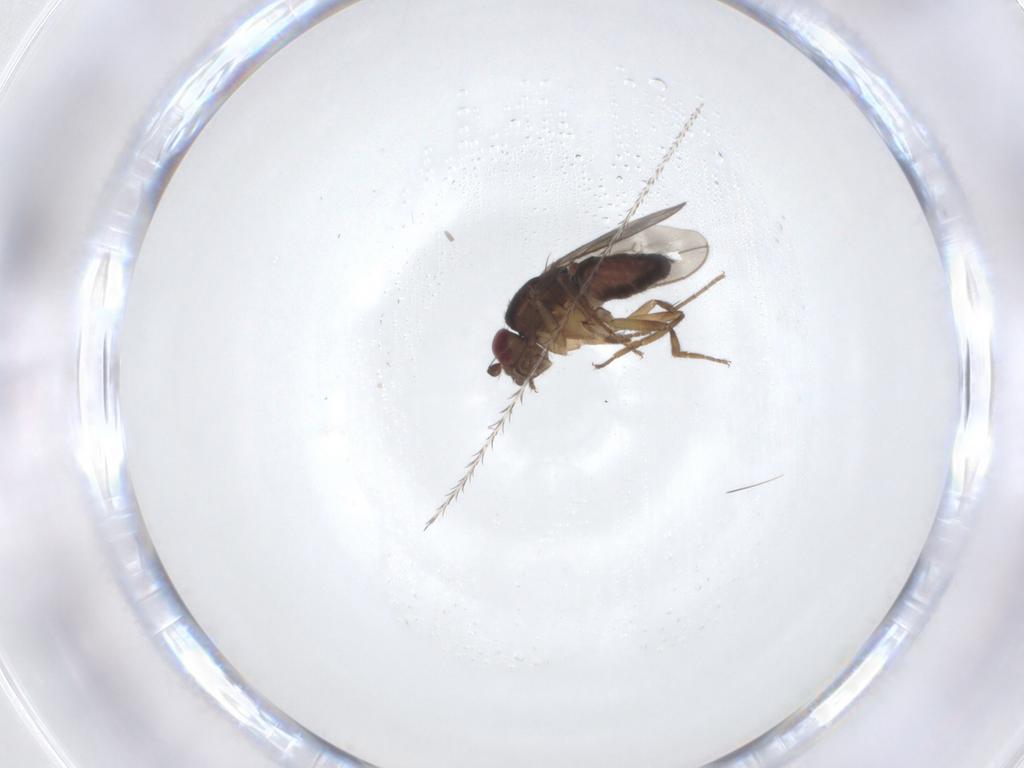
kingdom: Animalia
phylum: Arthropoda
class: Insecta
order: Diptera
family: Sphaeroceridae
